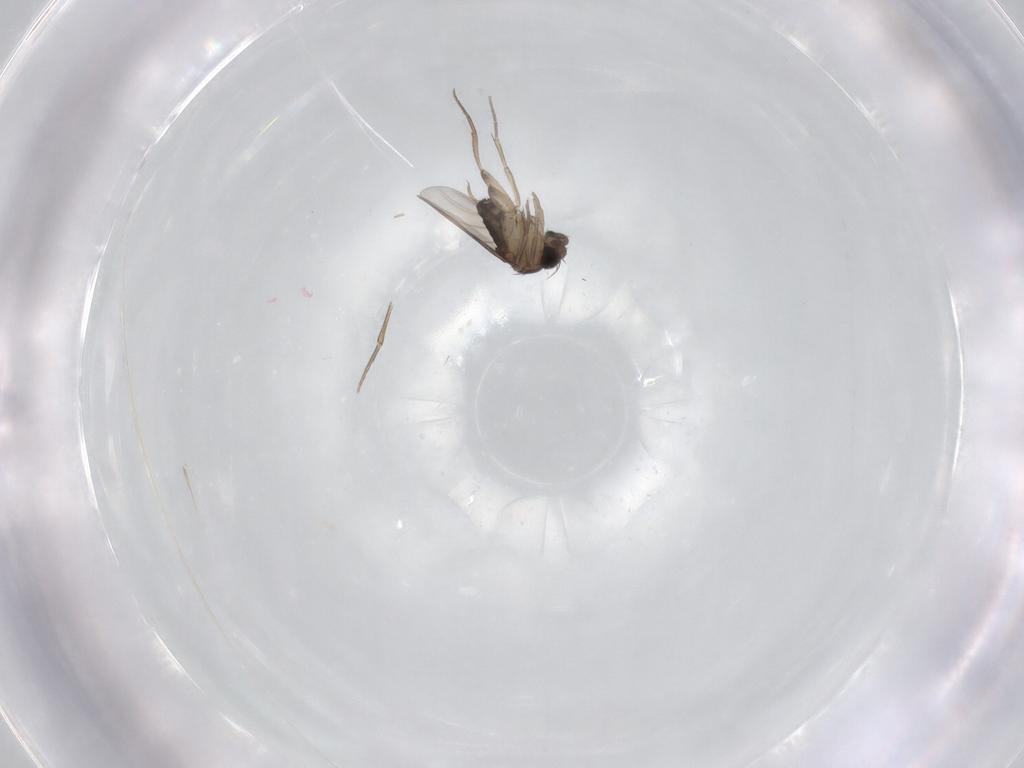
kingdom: Animalia
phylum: Arthropoda
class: Insecta
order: Diptera
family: Phoridae
